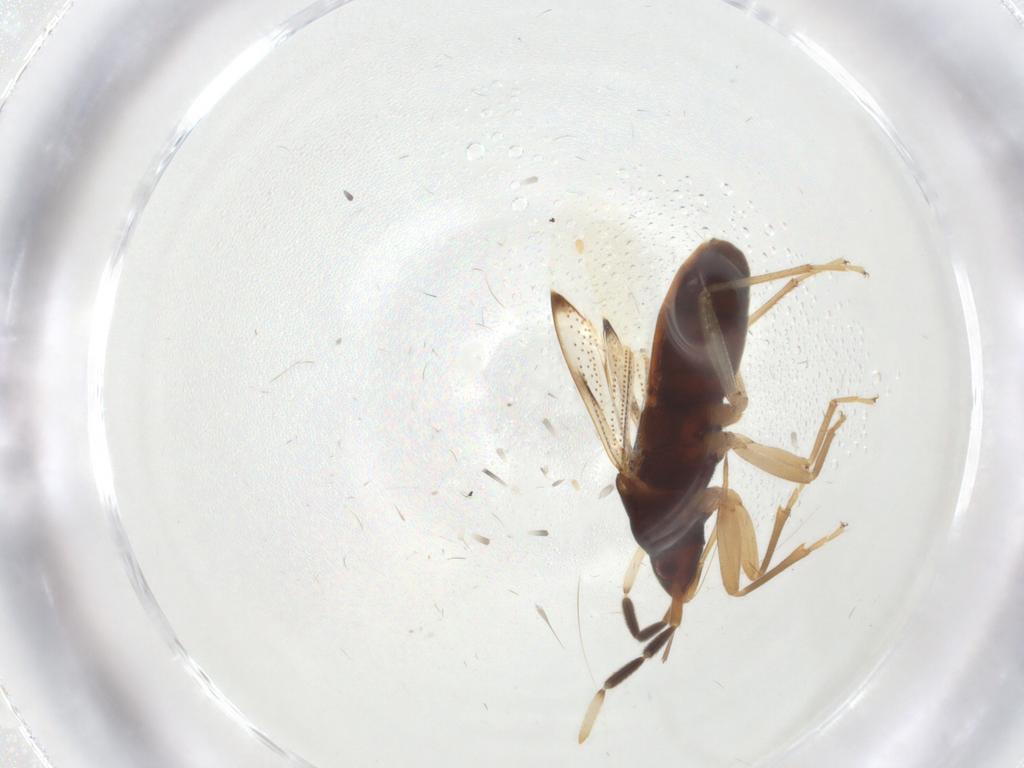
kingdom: Animalia
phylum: Arthropoda
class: Insecta
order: Hemiptera
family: Rhyparochromidae
